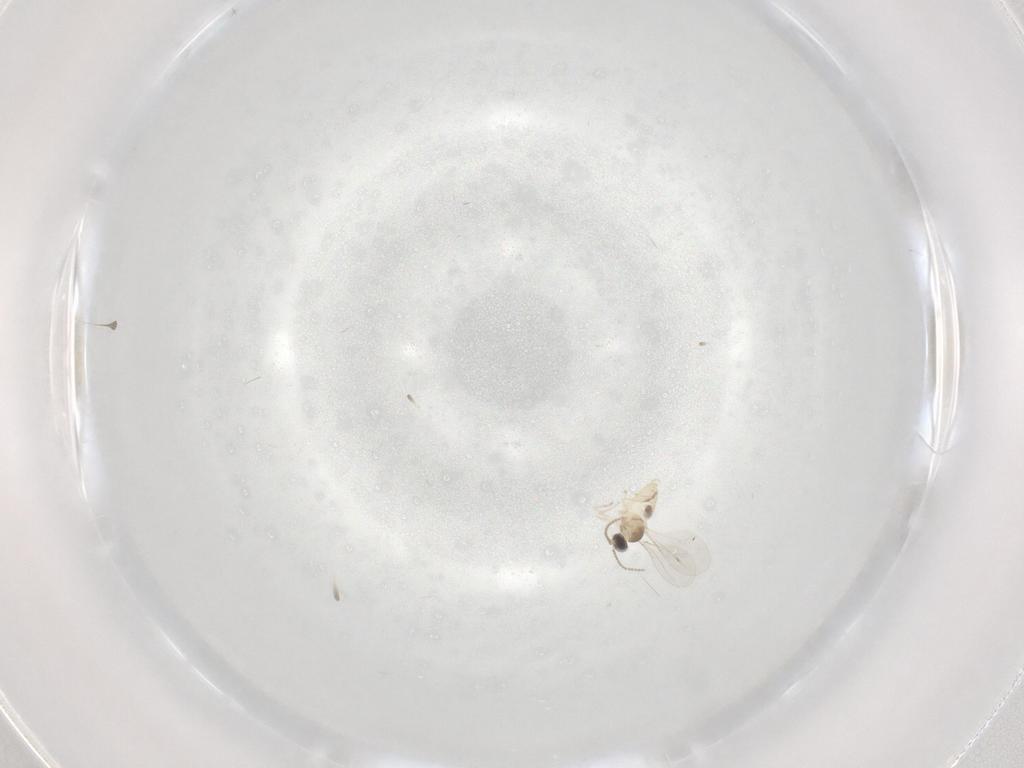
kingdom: Animalia
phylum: Arthropoda
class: Insecta
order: Diptera
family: Cecidomyiidae
